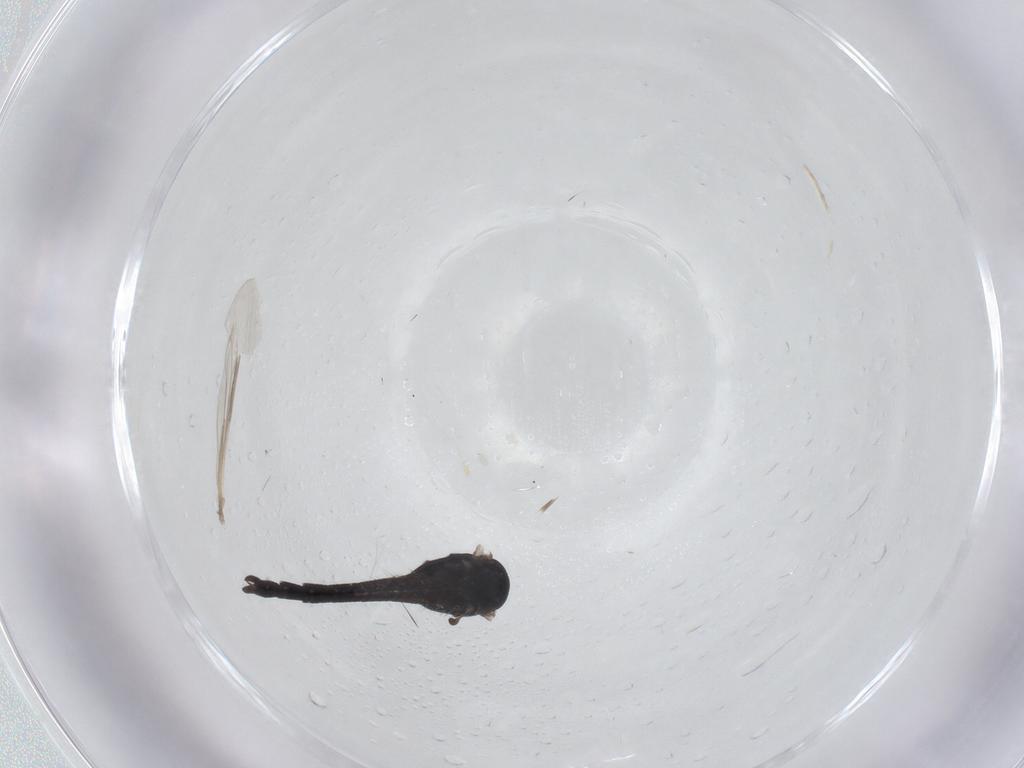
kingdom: Animalia
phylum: Arthropoda
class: Insecta
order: Diptera
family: Chironomidae
